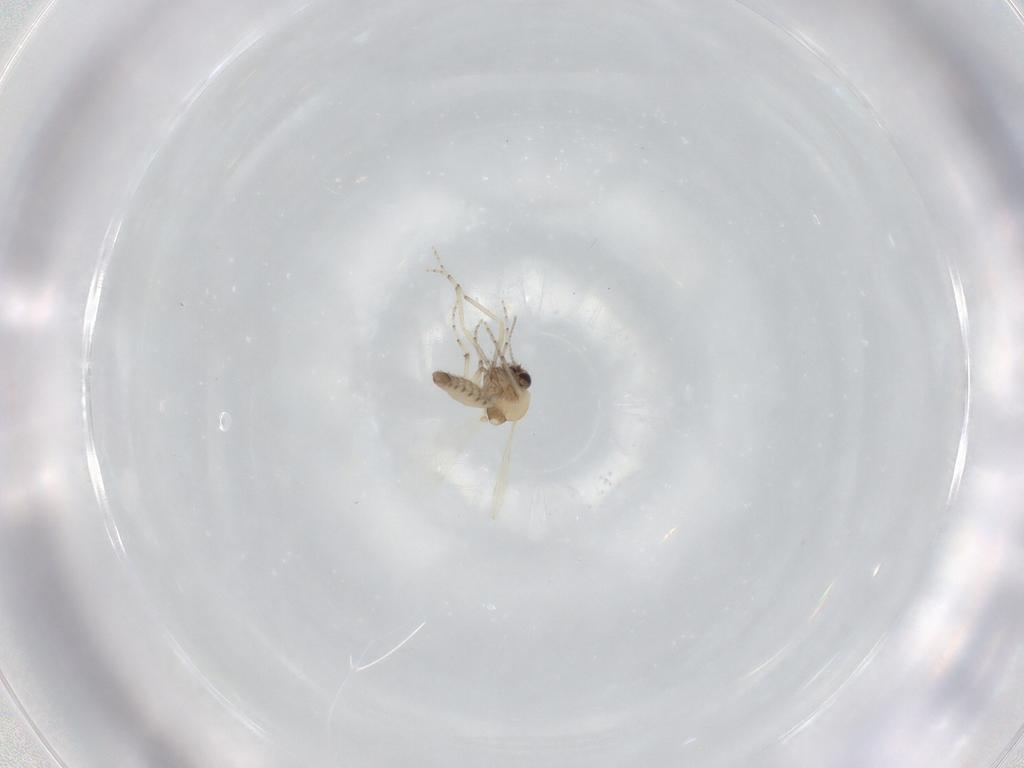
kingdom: Animalia
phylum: Arthropoda
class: Insecta
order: Diptera
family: Ceratopogonidae
